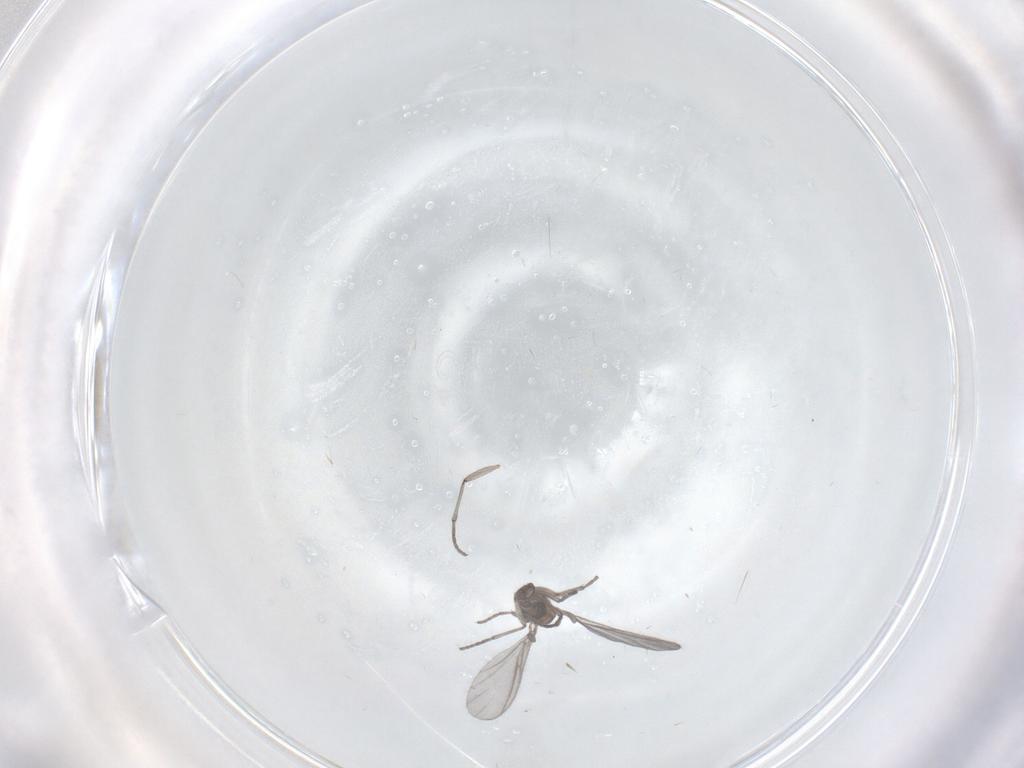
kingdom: Animalia
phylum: Arthropoda
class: Insecta
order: Diptera
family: Sciaridae
